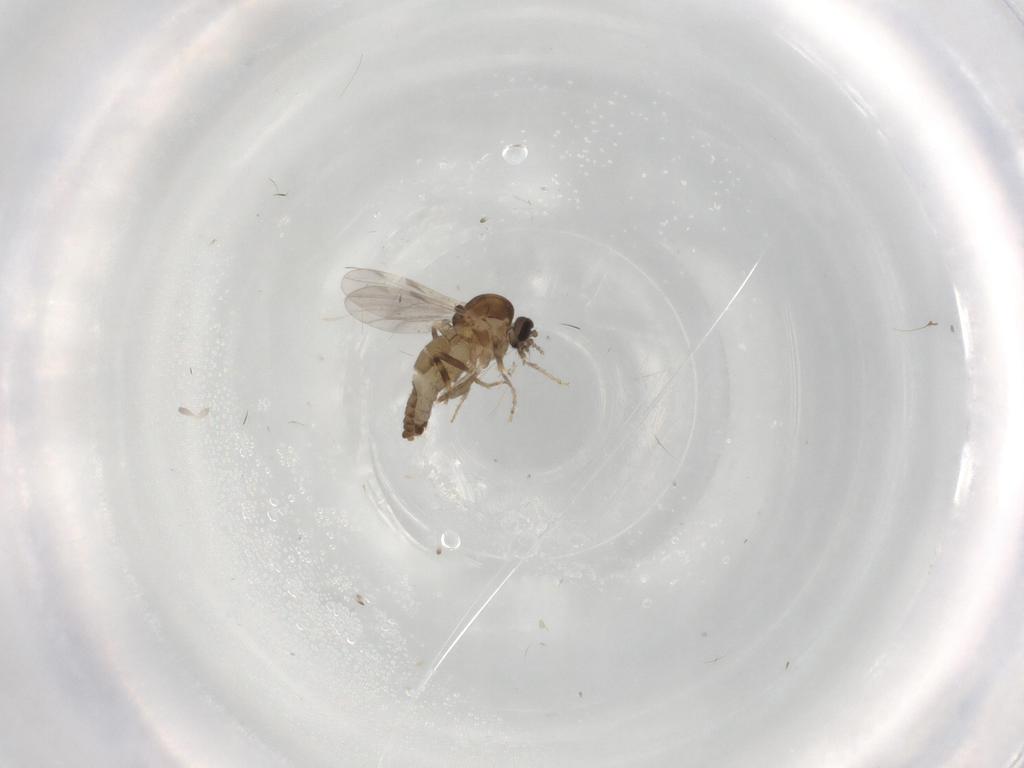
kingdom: Animalia
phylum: Arthropoda
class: Insecta
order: Diptera
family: Ceratopogonidae
